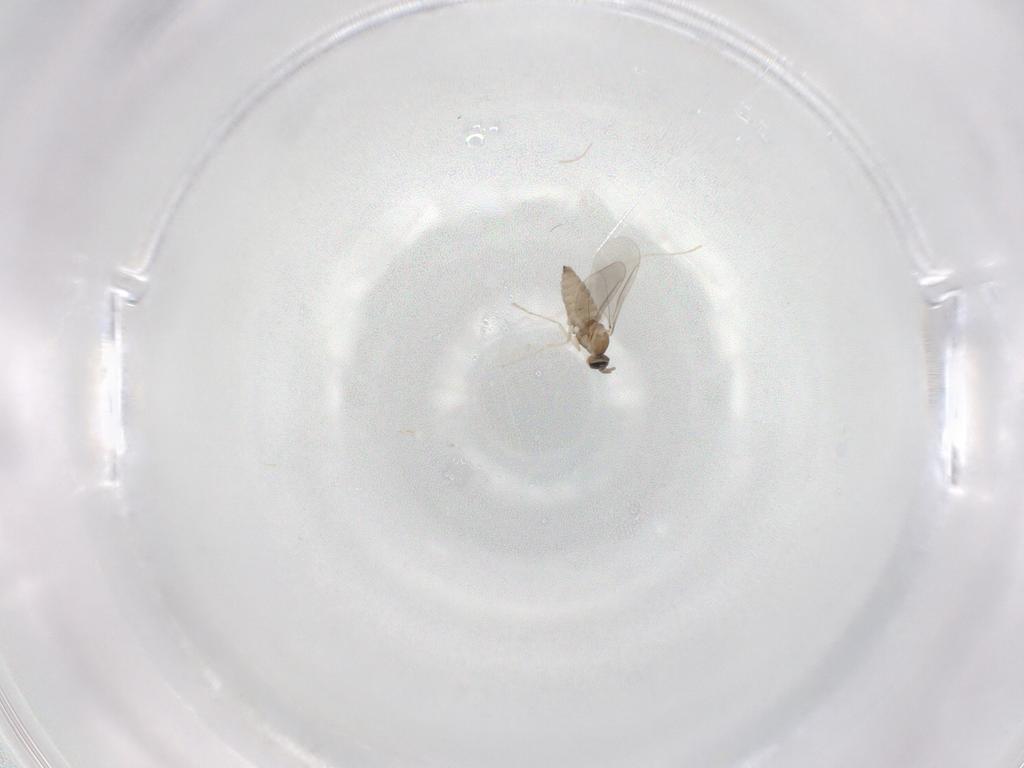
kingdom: Animalia
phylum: Arthropoda
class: Insecta
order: Diptera
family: Cecidomyiidae
